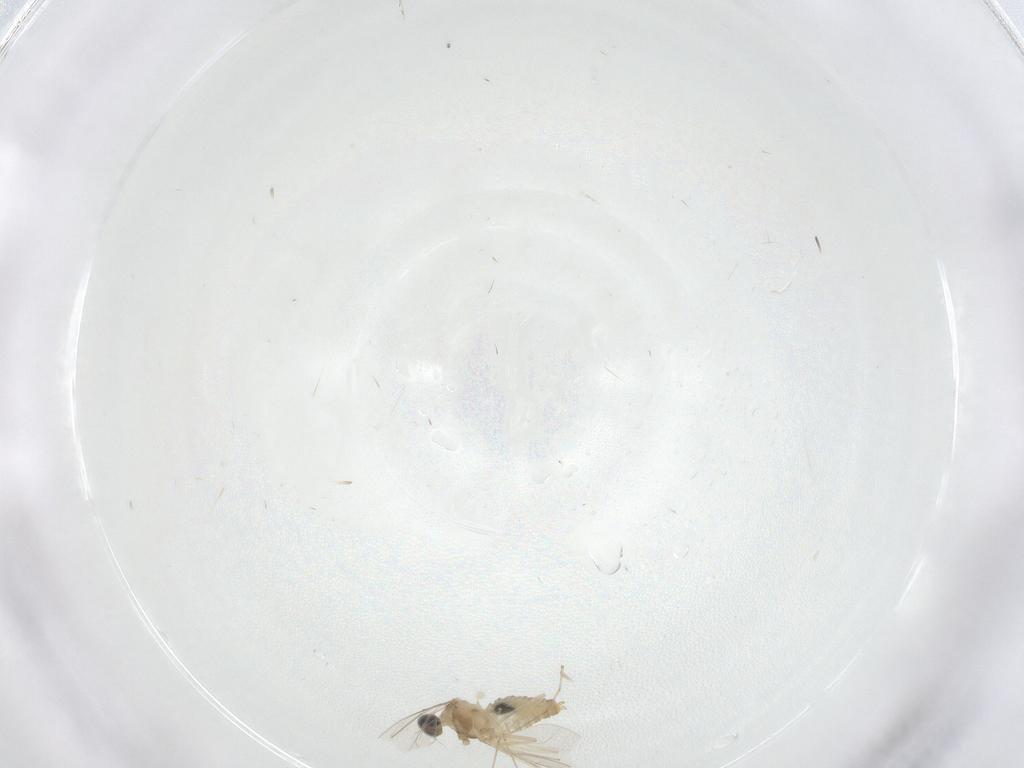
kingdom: Animalia
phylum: Arthropoda
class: Insecta
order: Diptera
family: Cecidomyiidae
